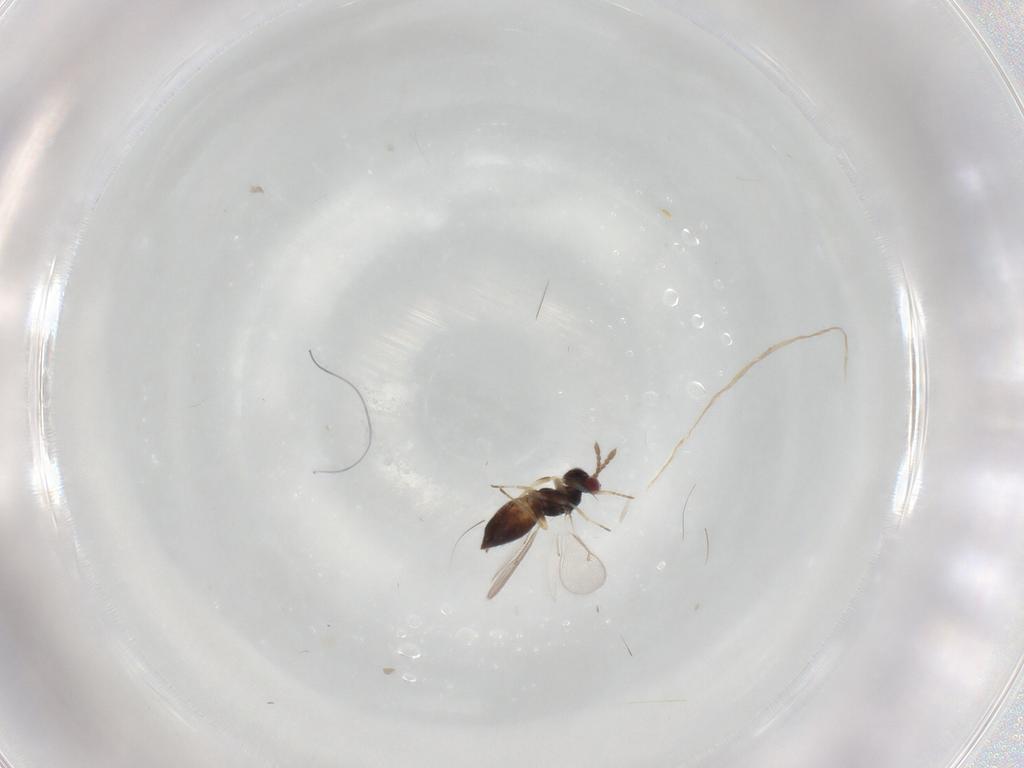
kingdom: Animalia
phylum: Arthropoda
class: Insecta
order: Hymenoptera
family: Eulophidae
